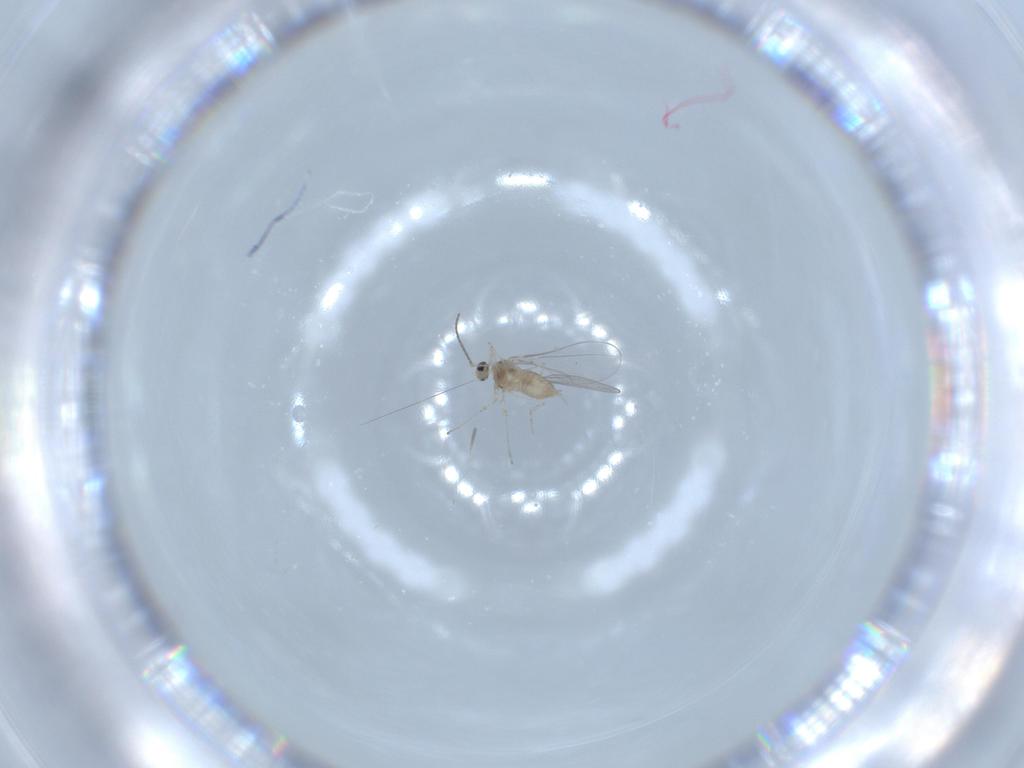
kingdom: Animalia
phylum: Arthropoda
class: Insecta
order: Diptera
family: Cecidomyiidae
